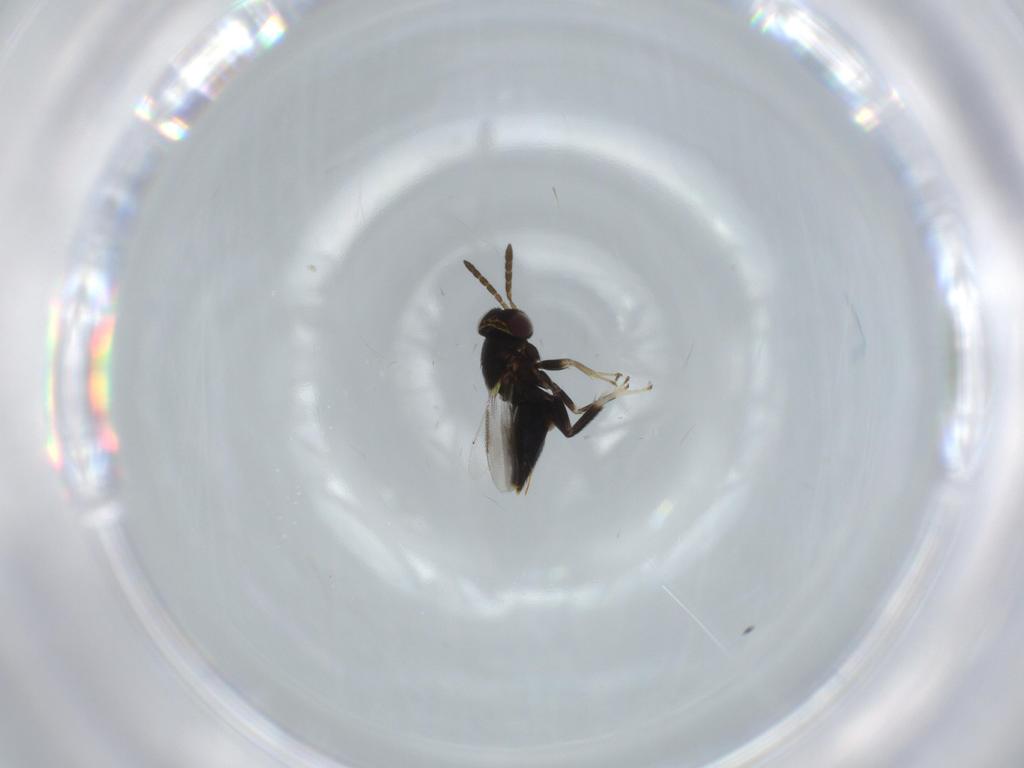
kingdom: Animalia
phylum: Arthropoda
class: Insecta
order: Hymenoptera
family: Aphelinidae
